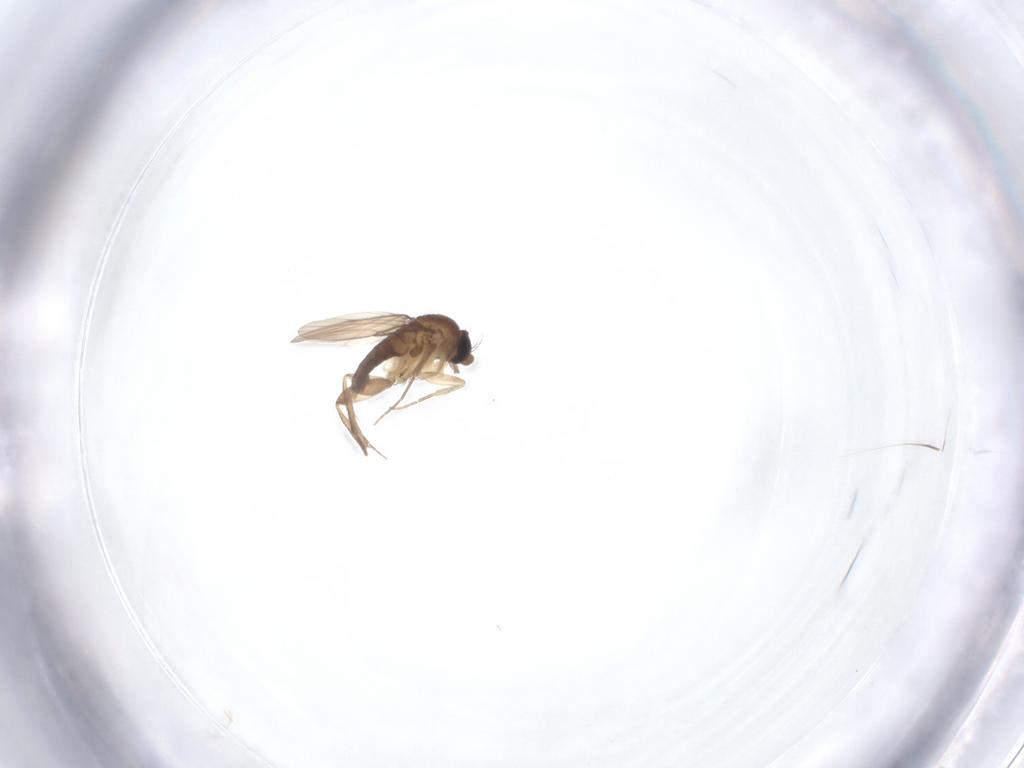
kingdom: Animalia
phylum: Arthropoda
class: Insecta
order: Diptera
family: Phoridae
